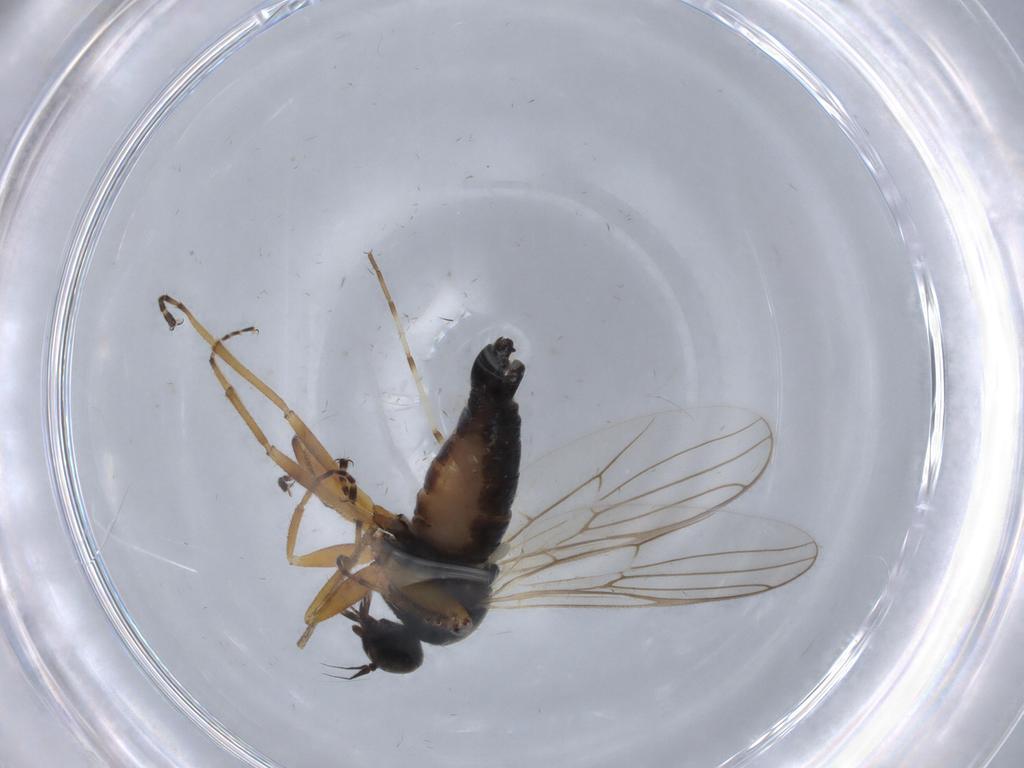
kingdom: Animalia
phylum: Arthropoda
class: Insecta
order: Diptera
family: Hybotidae
